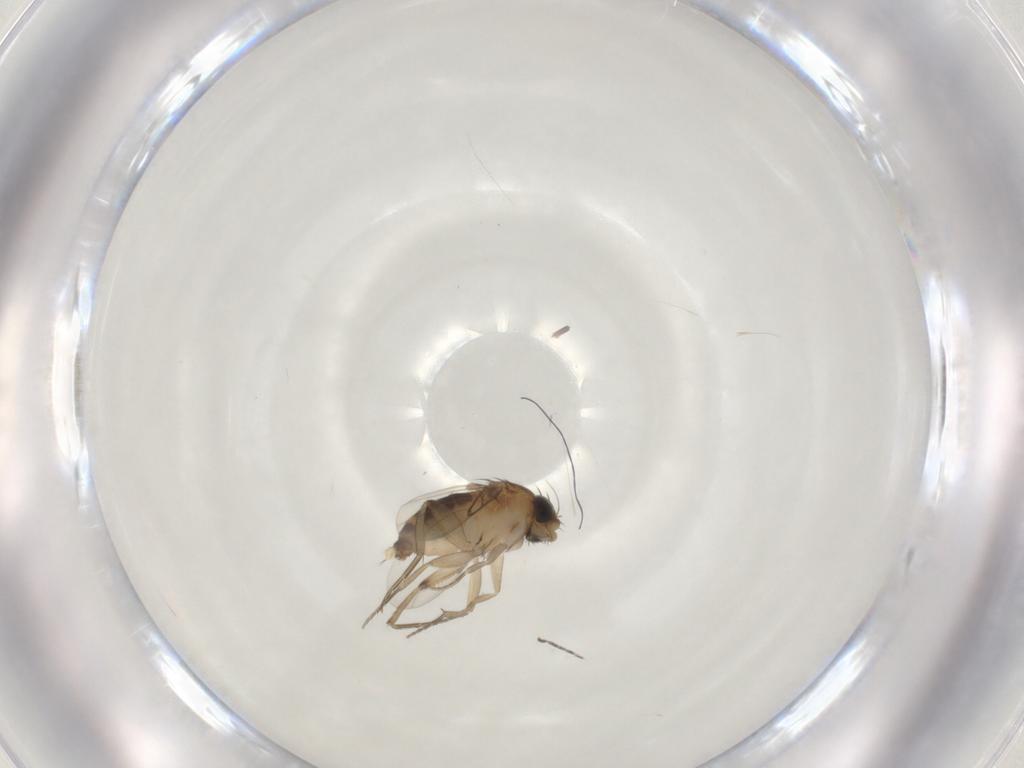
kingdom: Animalia
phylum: Arthropoda
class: Insecta
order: Diptera
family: Phoridae
